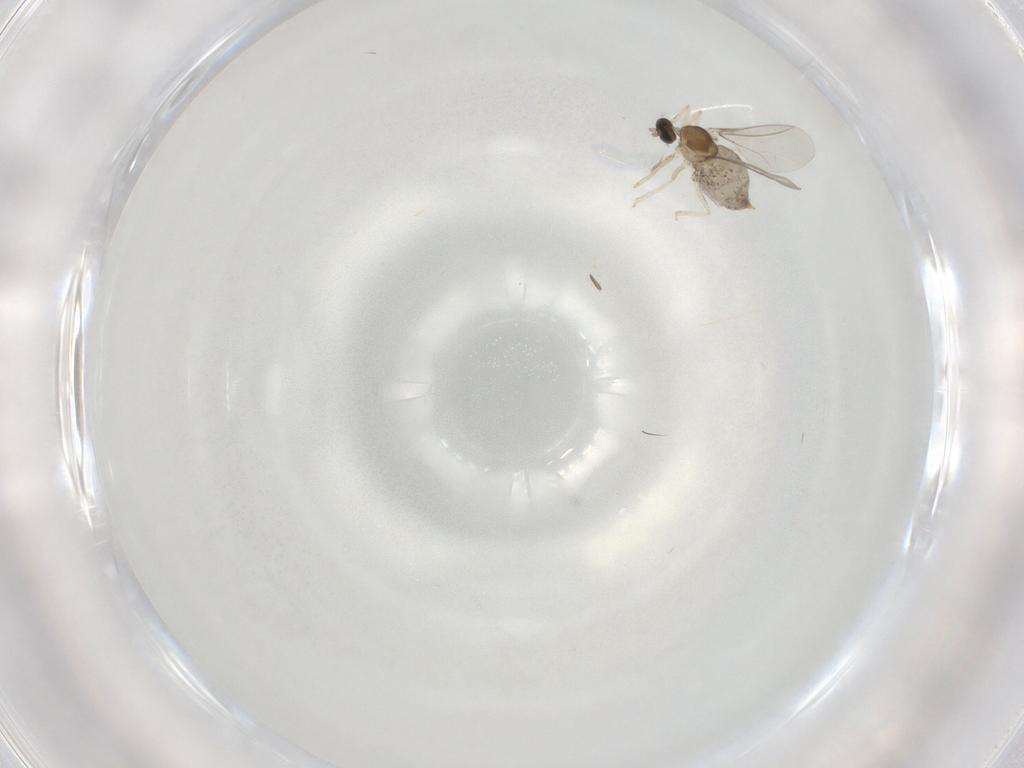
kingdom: Animalia
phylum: Arthropoda
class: Insecta
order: Diptera
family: Cecidomyiidae
